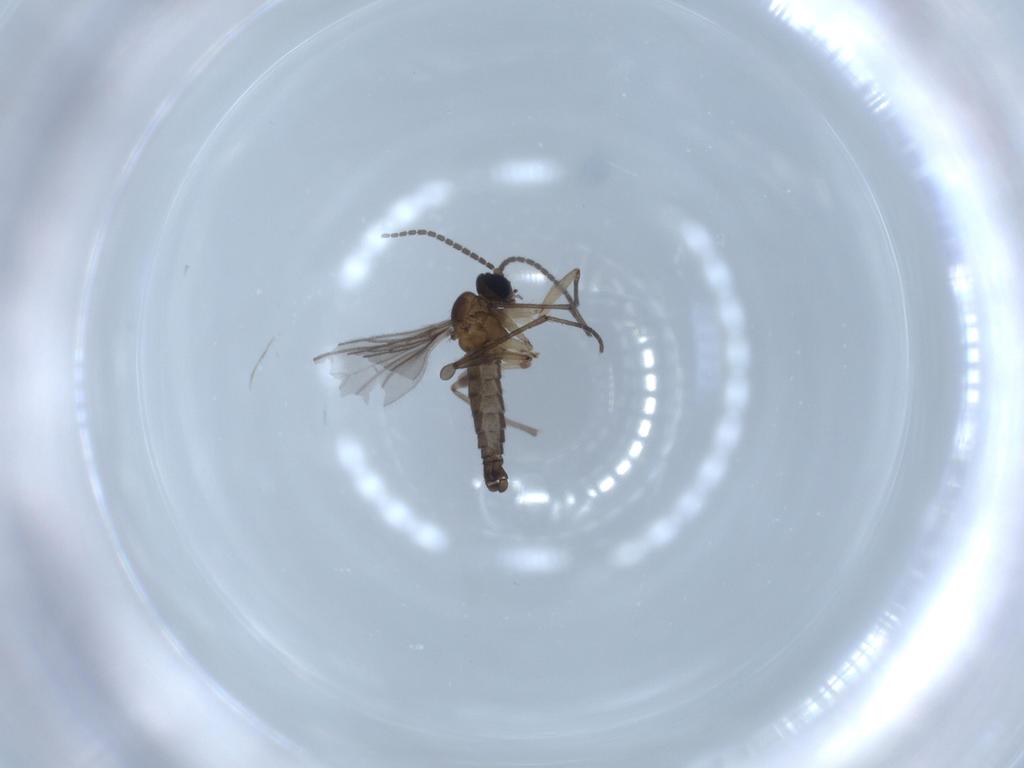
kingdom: Animalia
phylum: Arthropoda
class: Insecta
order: Diptera
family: Sciaridae
